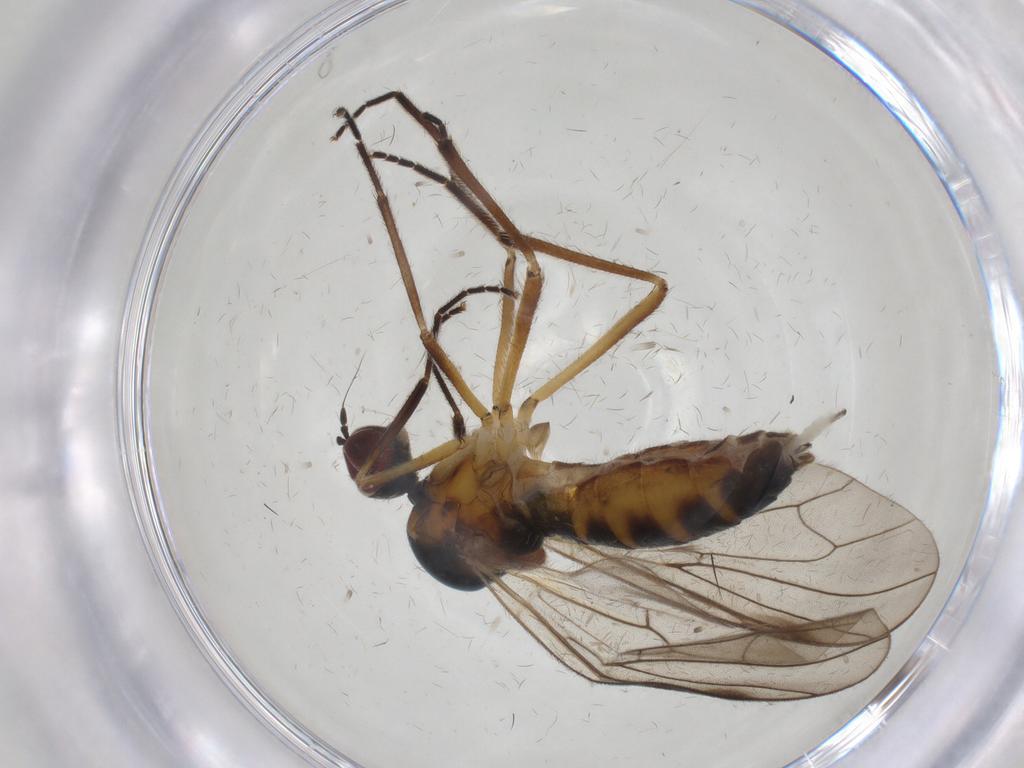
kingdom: Animalia
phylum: Arthropoda
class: Insecta
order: Diptera
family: Hybotidae
